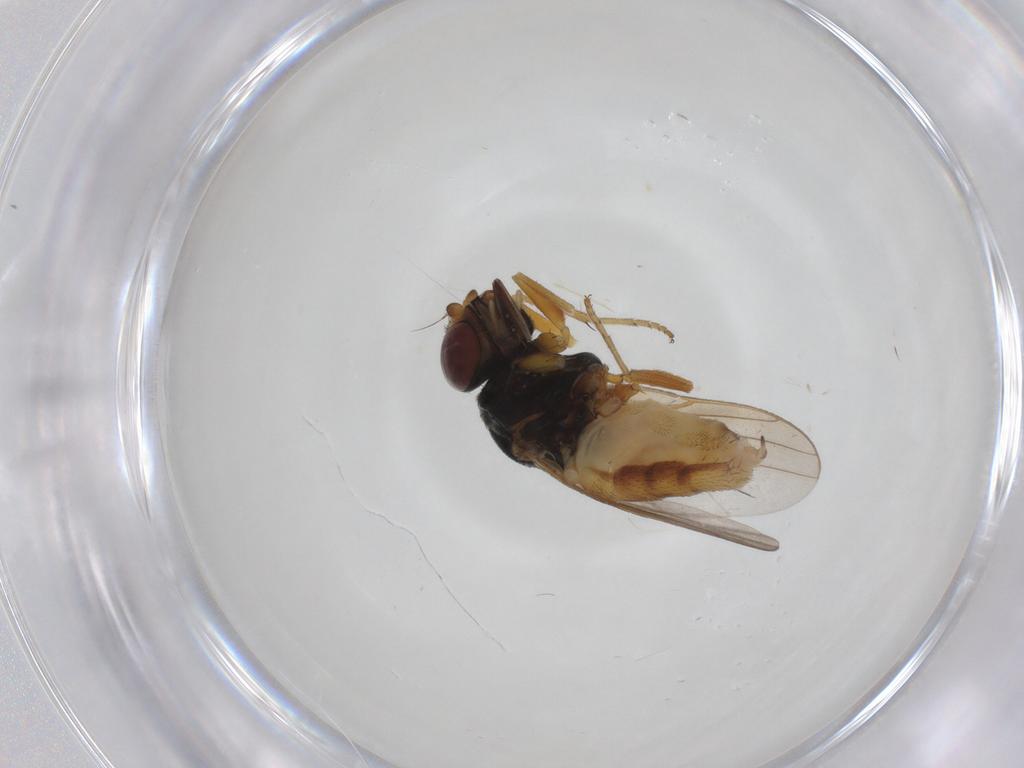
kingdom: Animalia
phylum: Arthropoda
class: Insecta
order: Diptera
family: Chloropidae
